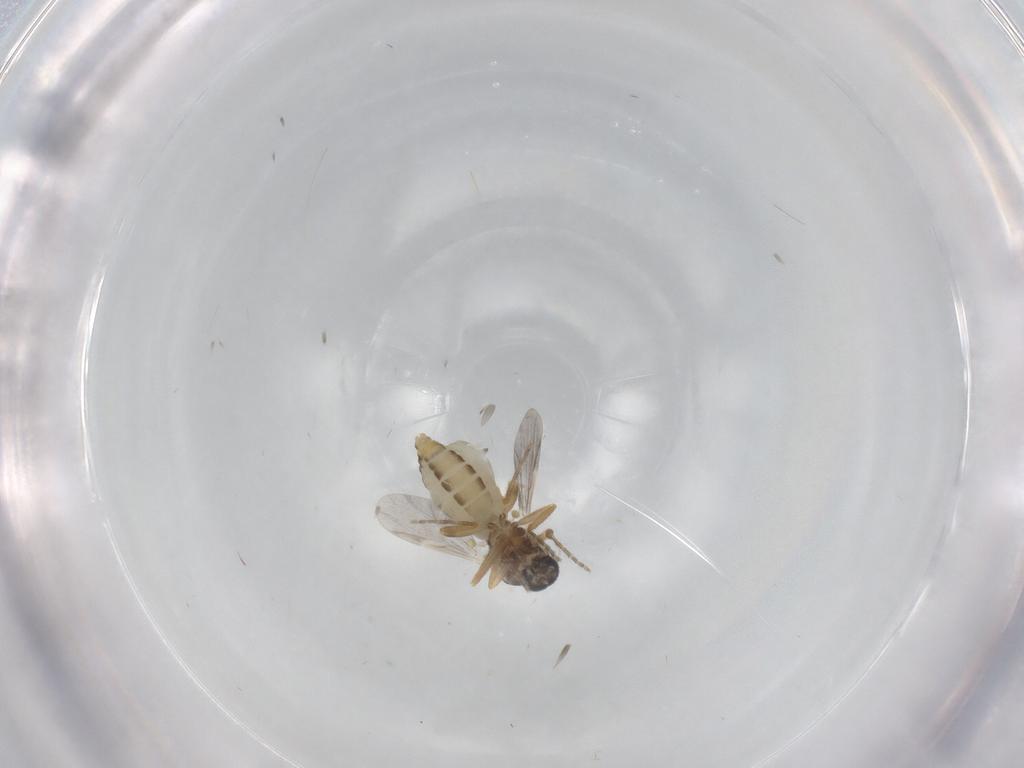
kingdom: Animalia
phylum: Arthropoda
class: Insecta
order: Diptera
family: Ceratopogonidae
